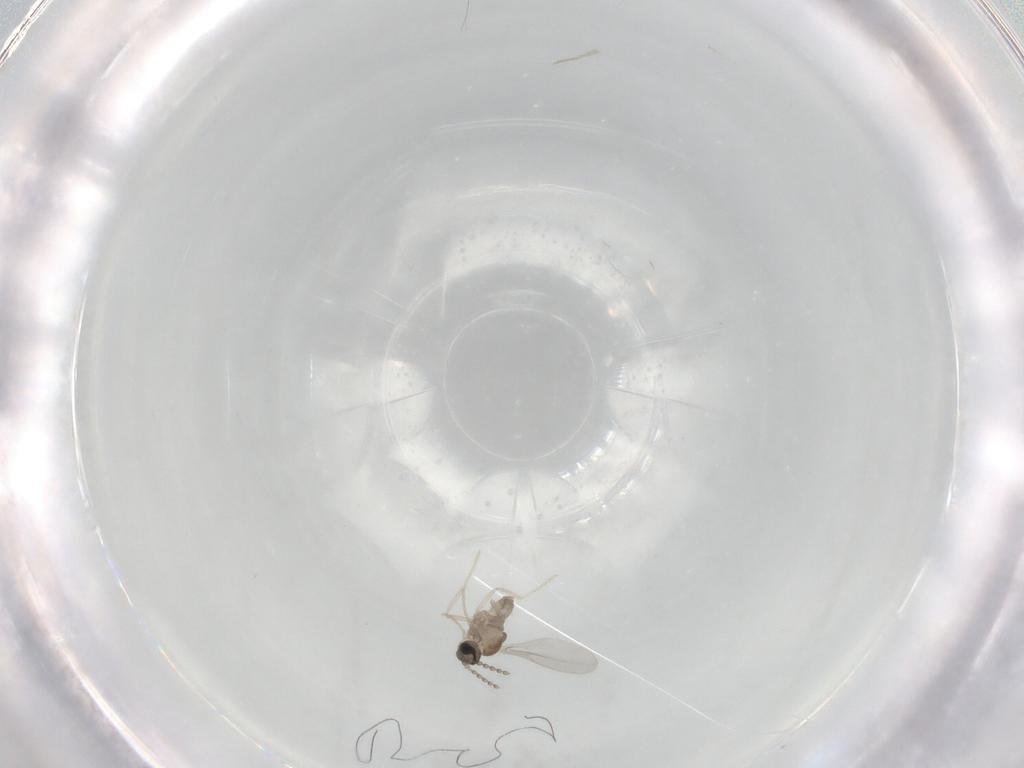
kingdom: Animalia
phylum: Arthropoda
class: Insecta
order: Diptera
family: Cecidomyiidae
